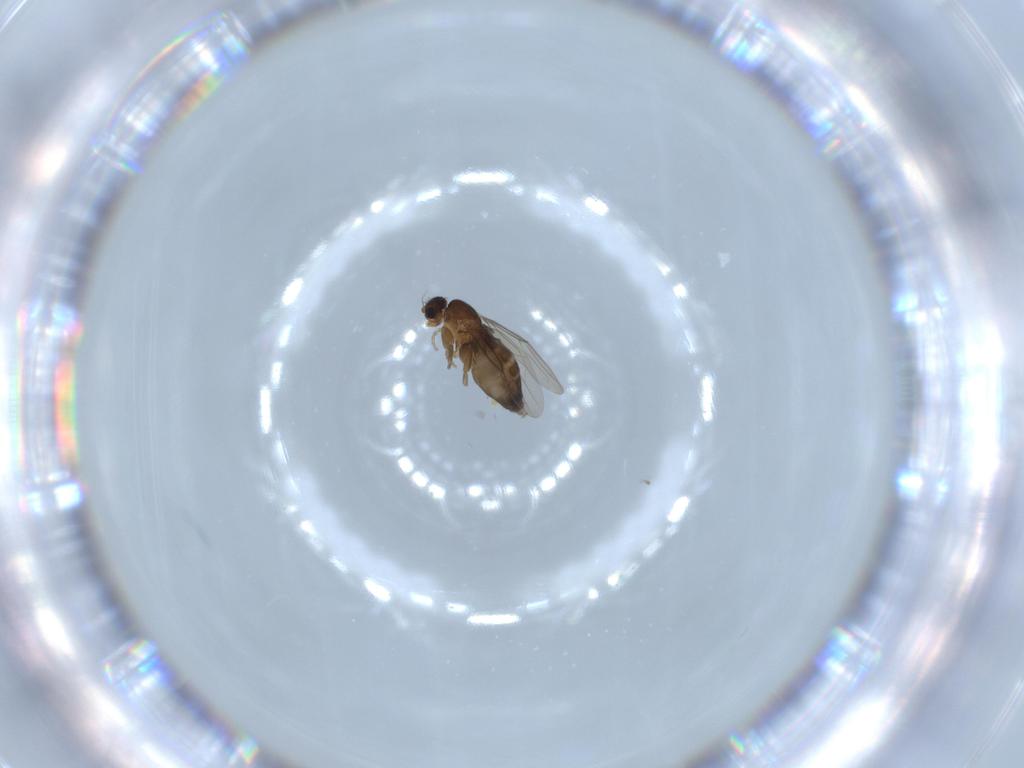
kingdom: Animalia
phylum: Arthropoda
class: Insecta
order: Diptera
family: Phoridae
